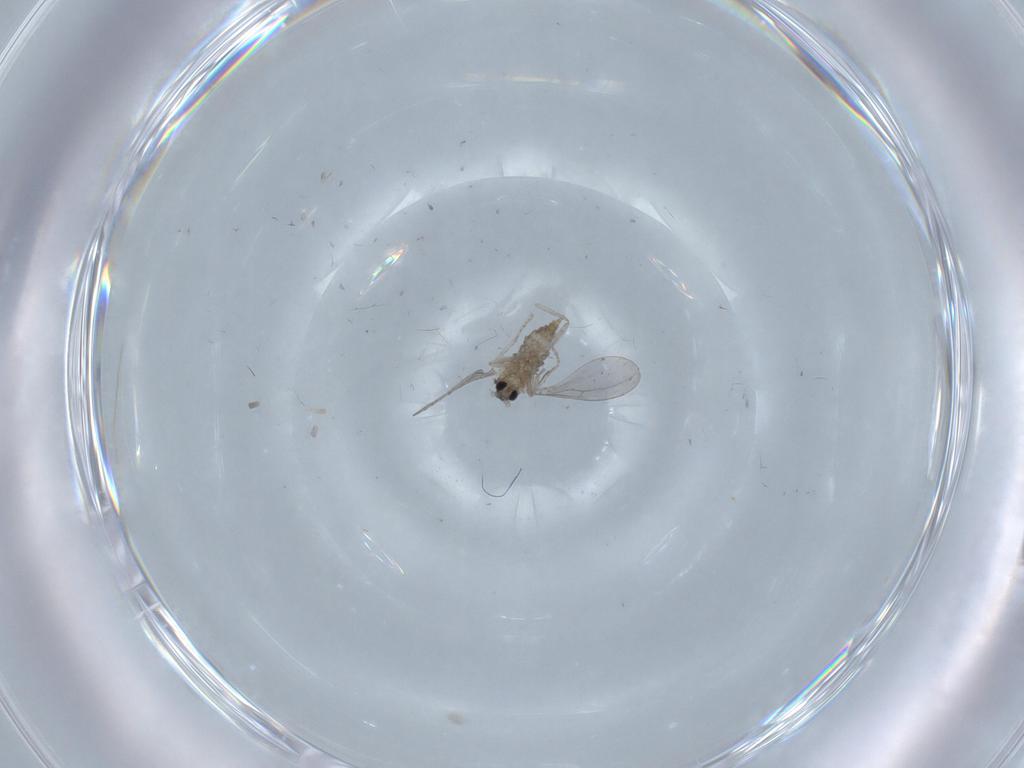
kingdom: Animalia
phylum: Arthropoda
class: Insecta
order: Diptera
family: Cecidomyiidae
